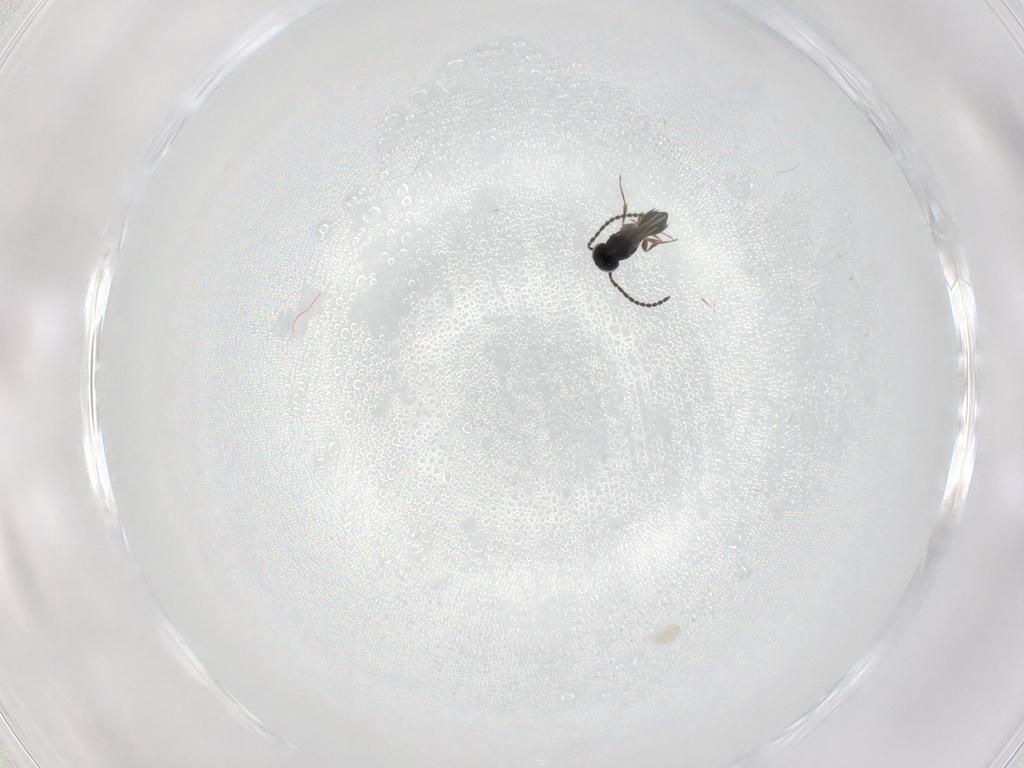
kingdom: Animalia
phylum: Arthropoda
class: Insecta
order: Hymenoptera
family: Scelionidae
